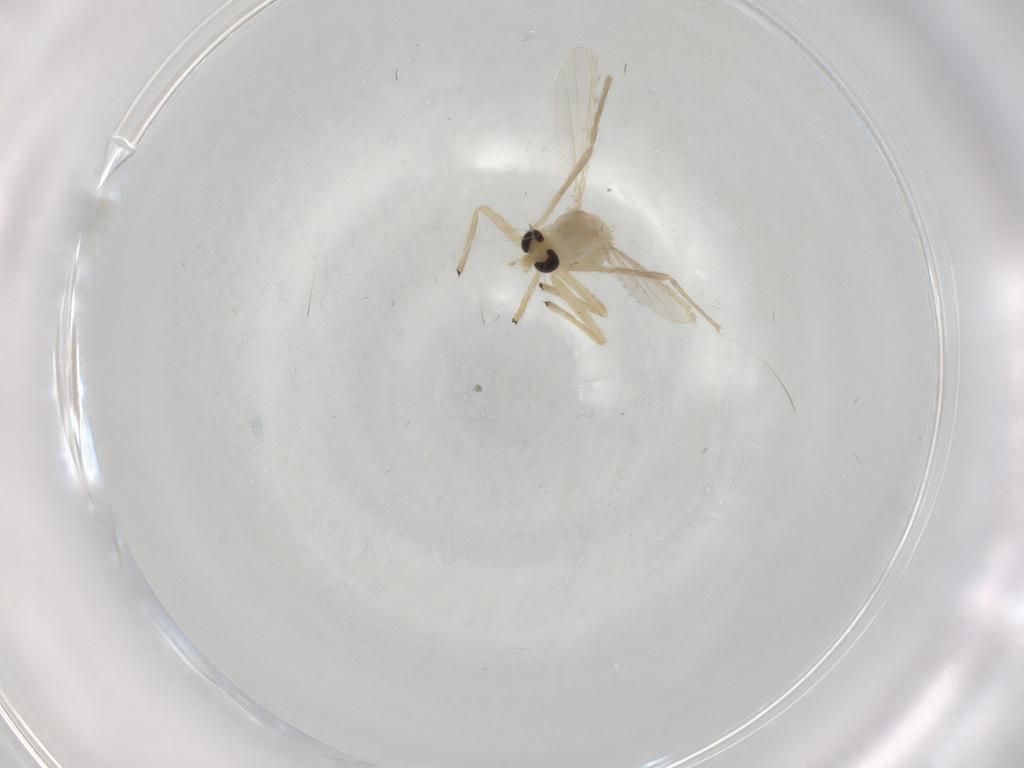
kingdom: Animalia
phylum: Arthropoda
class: Insecta
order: Diptera
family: Chironomidae
